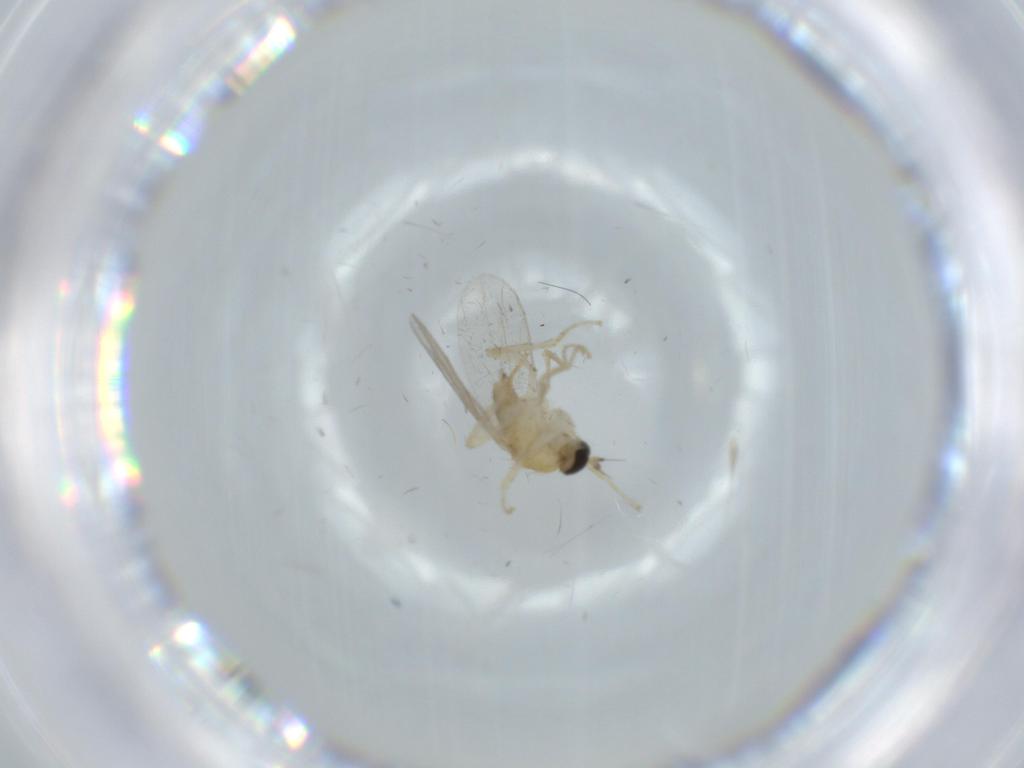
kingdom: Animalia
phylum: Arthropoda
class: Insecta
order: Diptera
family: Hybotidae
